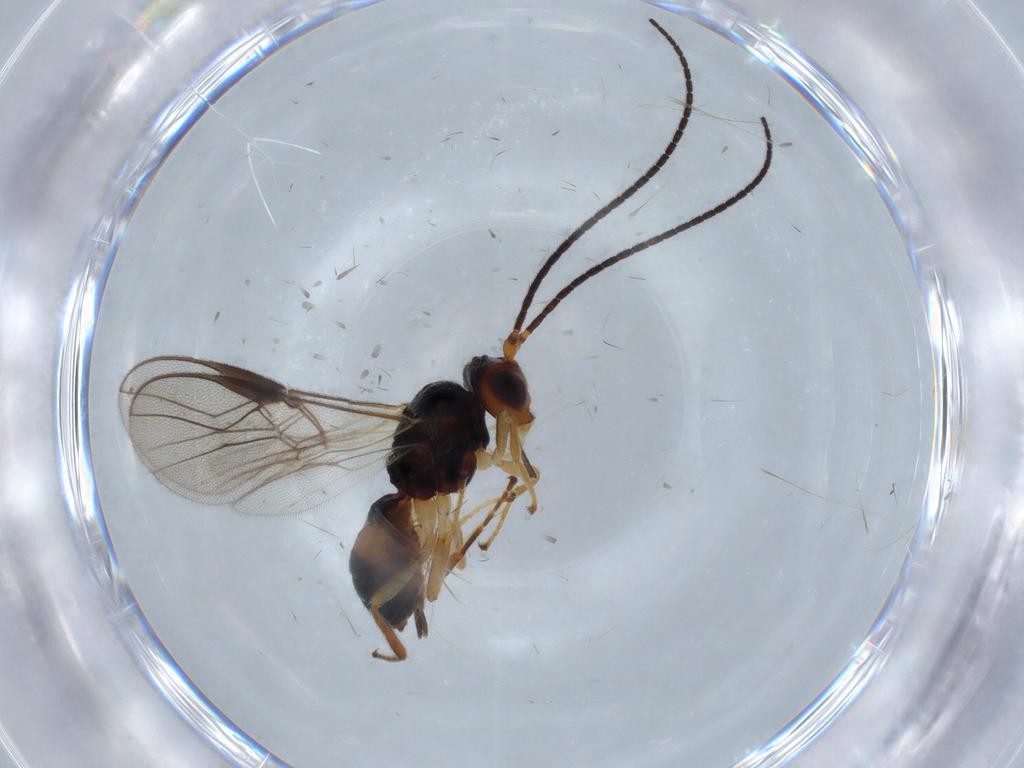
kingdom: Animalia
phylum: Arthropoda
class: Insecta
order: Hymenoptera
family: Braconidae
